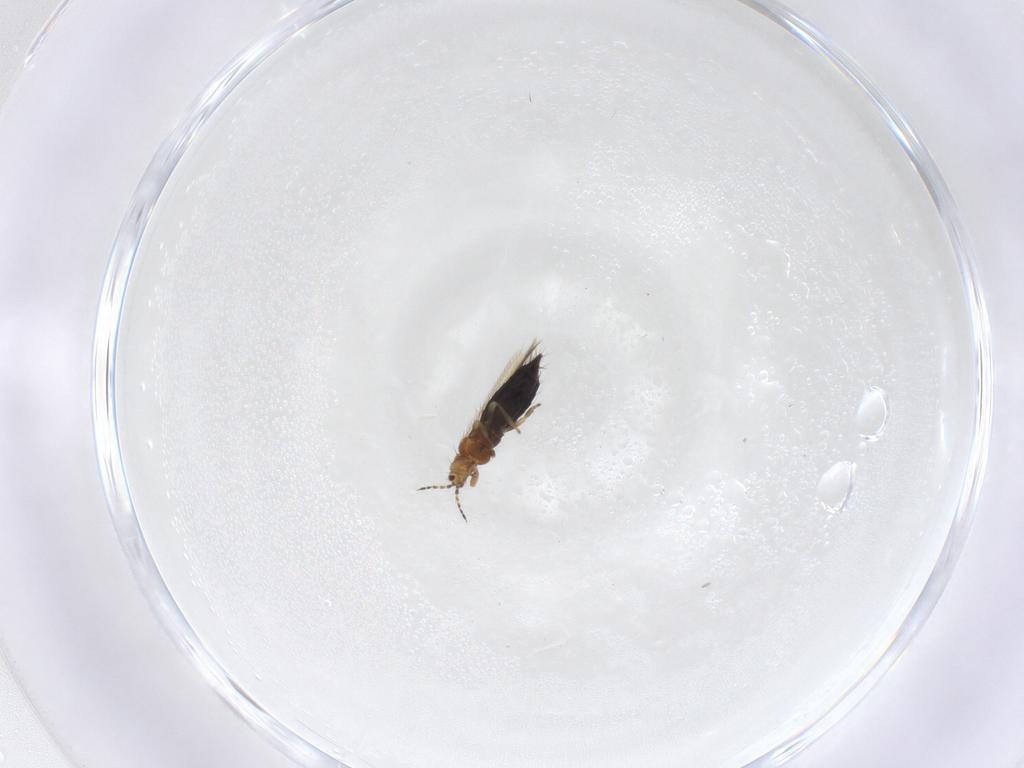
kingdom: Animalia
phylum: Arthropoda
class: Insecta
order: Thysanoptera
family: Thripidae
